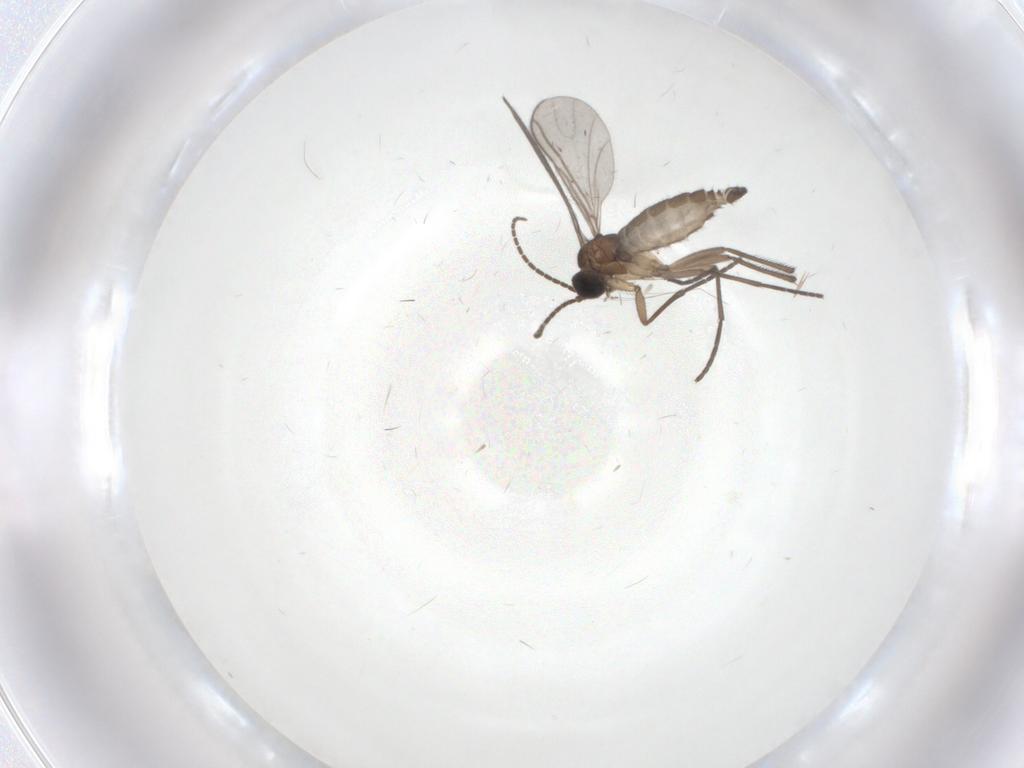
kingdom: Animalia
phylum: Arthropoda
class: Insecta
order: Diptera
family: Sciaridae
